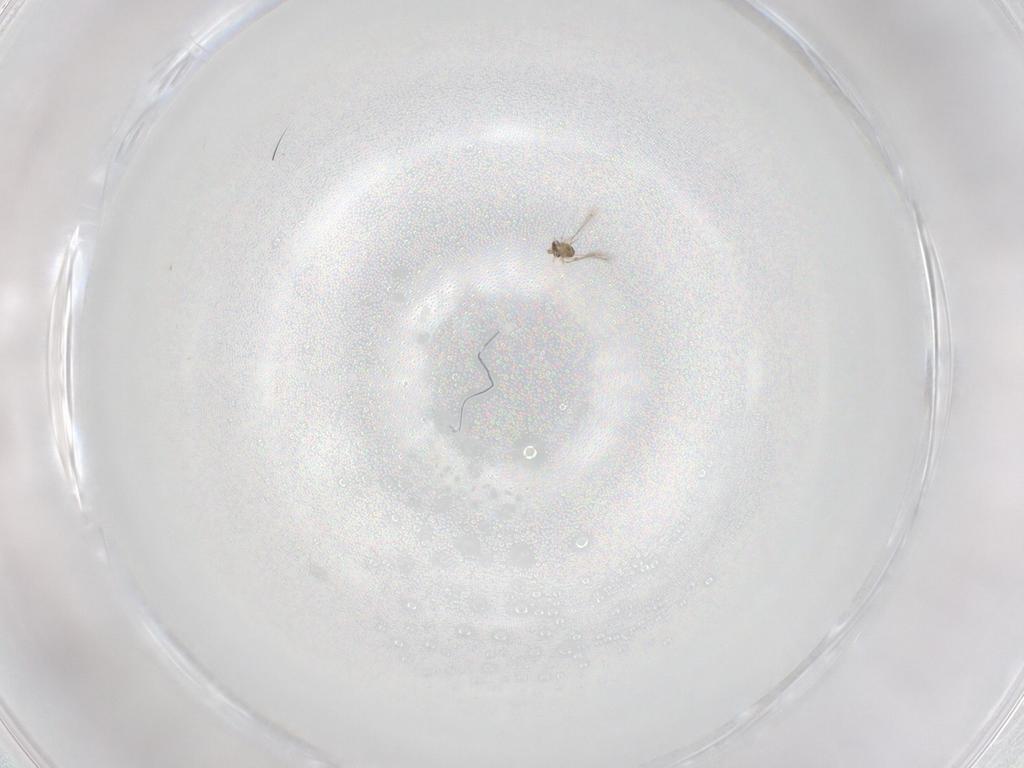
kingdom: Animalia
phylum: Arthropoda
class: Insecta
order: Hymenoptera
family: Mymaridae
